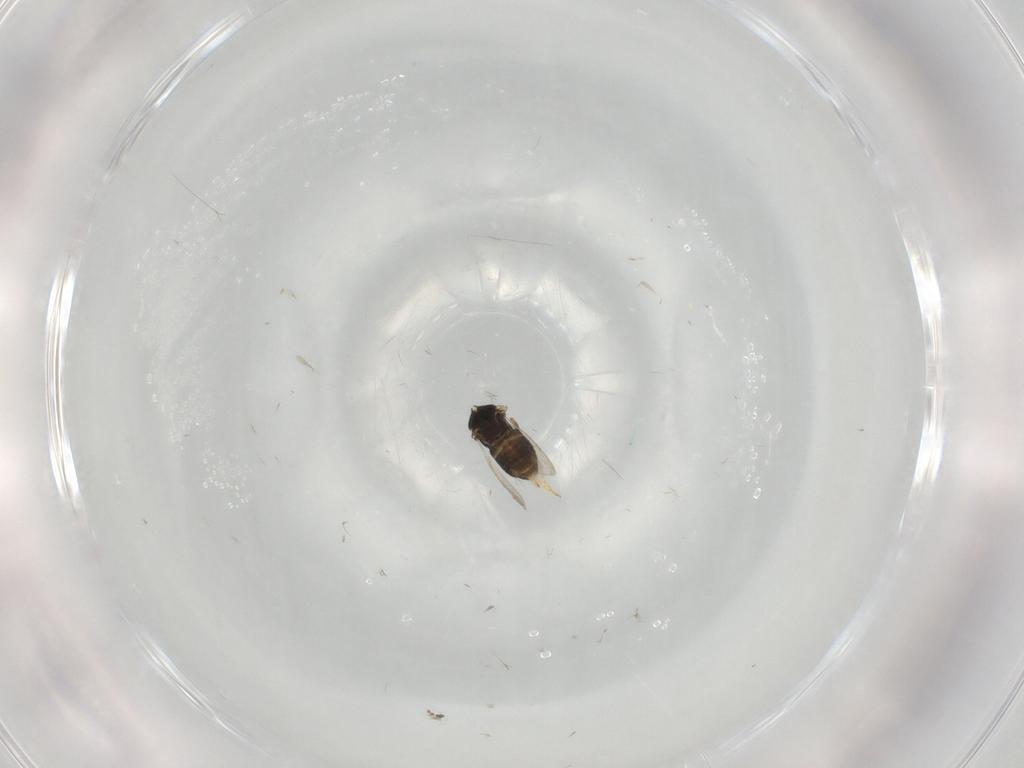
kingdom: Animalia
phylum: Arthropoda
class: Insecta
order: Hymenoptera
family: Aphelinidae
